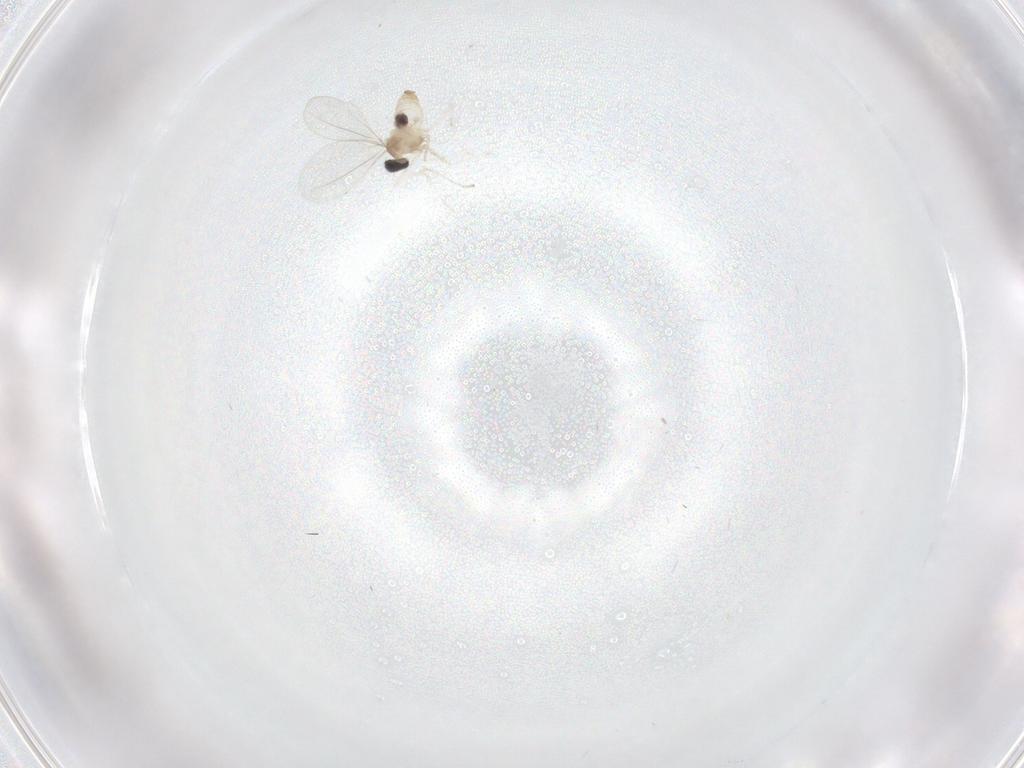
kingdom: Animalia
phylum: Arthropoda
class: Insecta
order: Diptera
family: Cecidomyiidae
